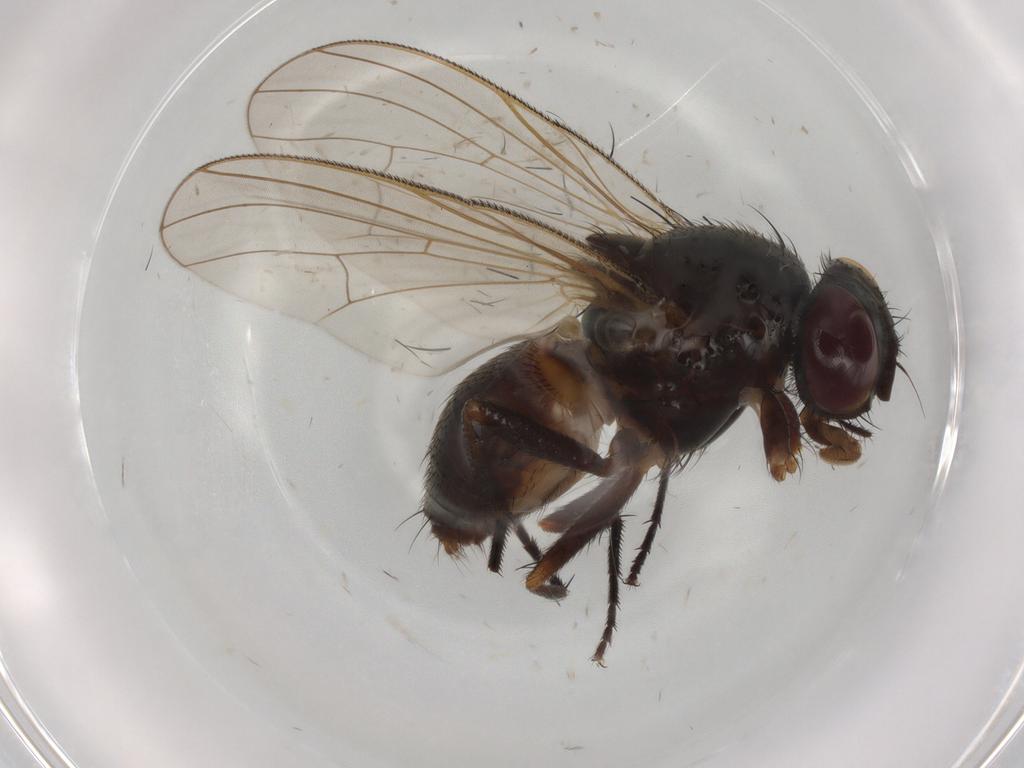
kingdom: Animalia
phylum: Arthropoda
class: Insecta
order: Diptera
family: Fannia
